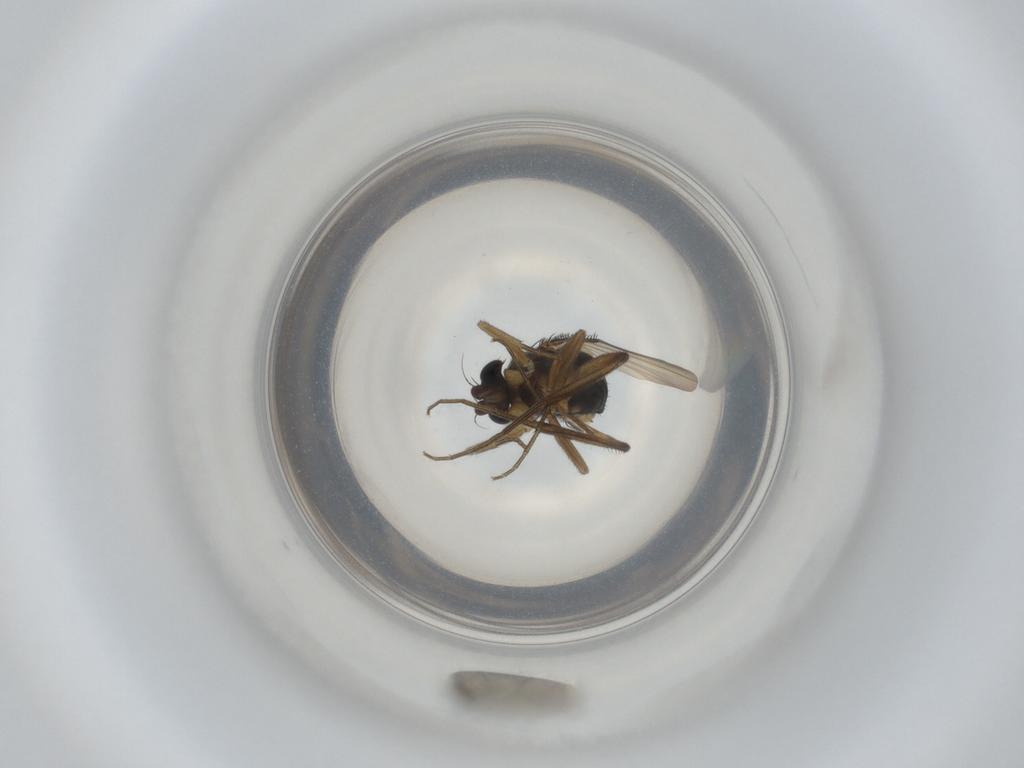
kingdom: Animalia
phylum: Arthropoda
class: Insecta
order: Diptera
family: Phoridae
